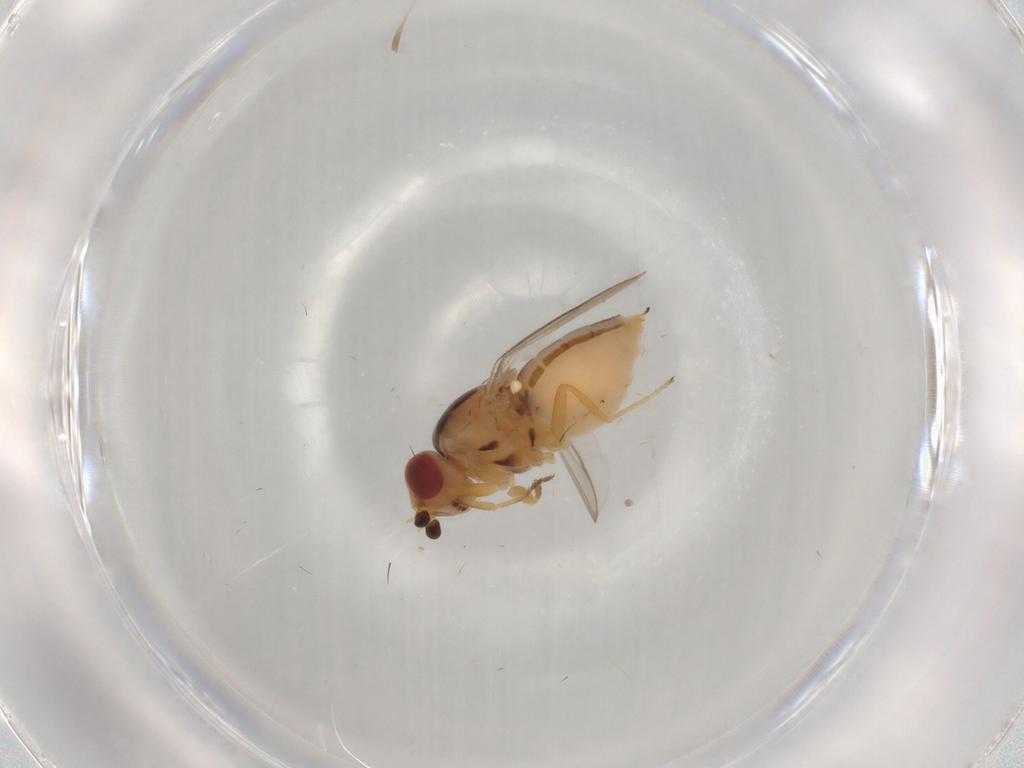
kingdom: Animalia
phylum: Arthropoda
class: Insecta
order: Diptera
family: Chloropidae
